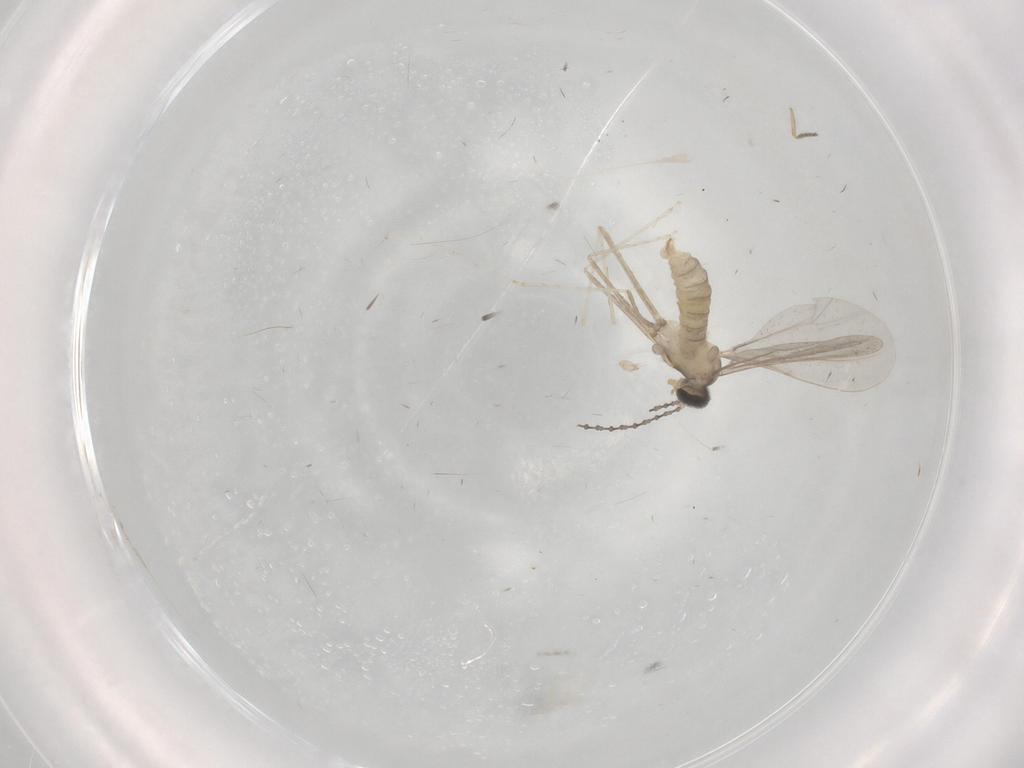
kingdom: Animalia
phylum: Arthropoda
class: Insecta
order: Diptera
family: Cecidomyiidae
